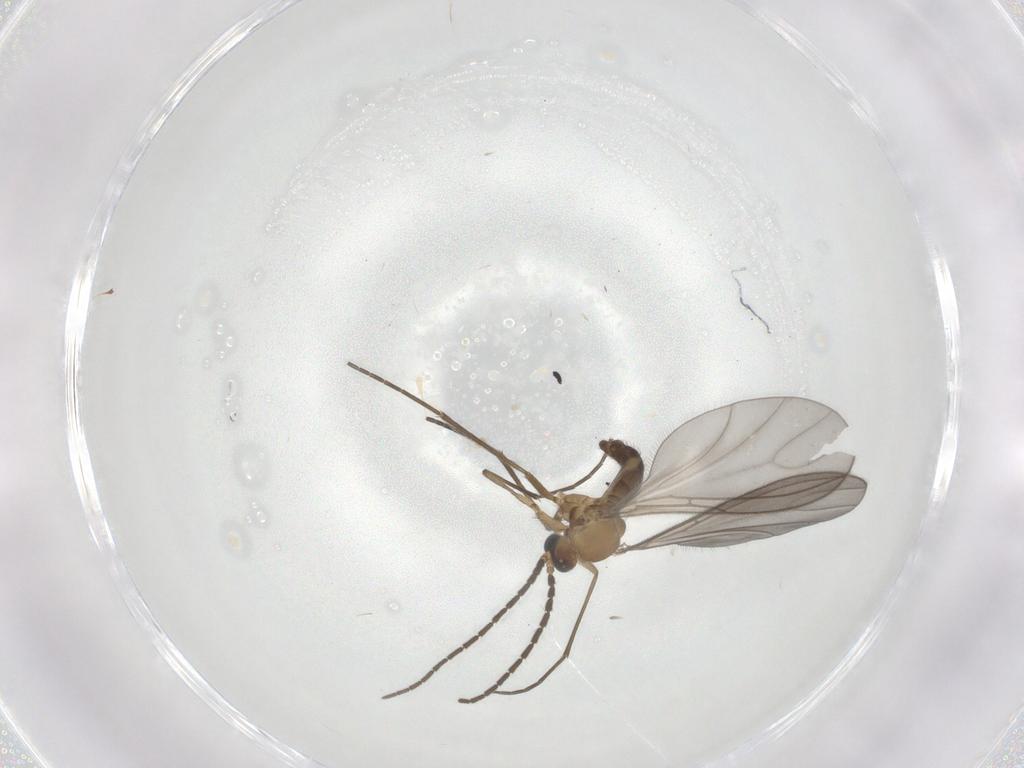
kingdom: Animalia
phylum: Arthropoda
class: Insecta
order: Diptera
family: Sciaridae
